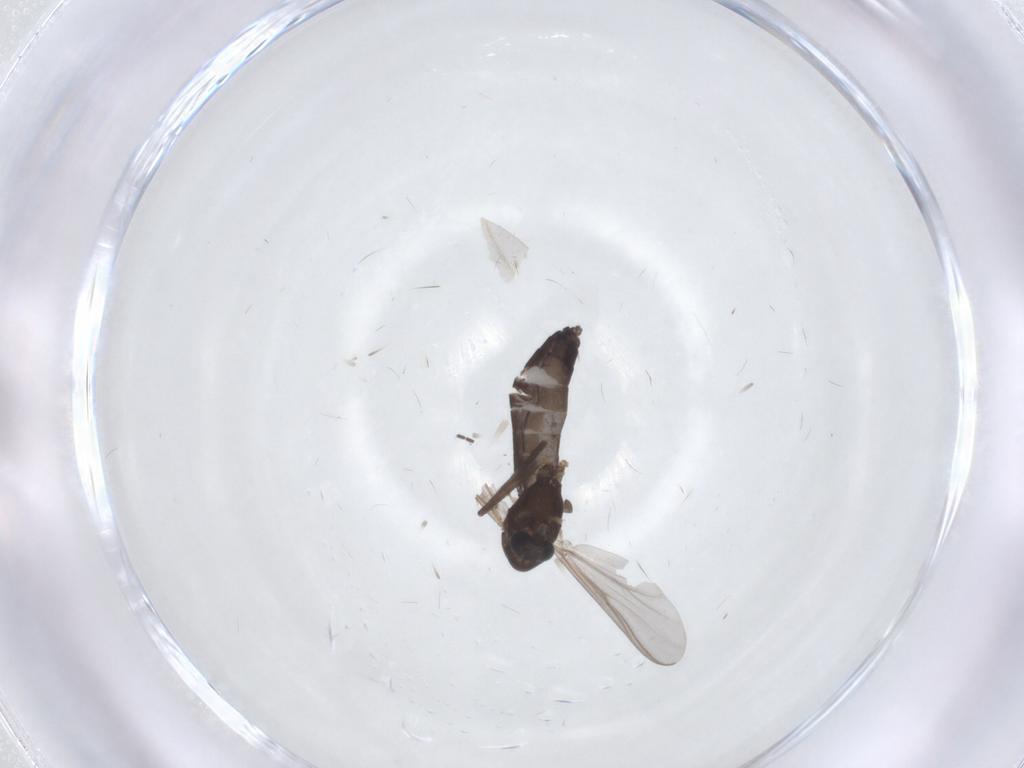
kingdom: Animalia
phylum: Arthropoda
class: Insecta
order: Diptera
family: Chironomidae
